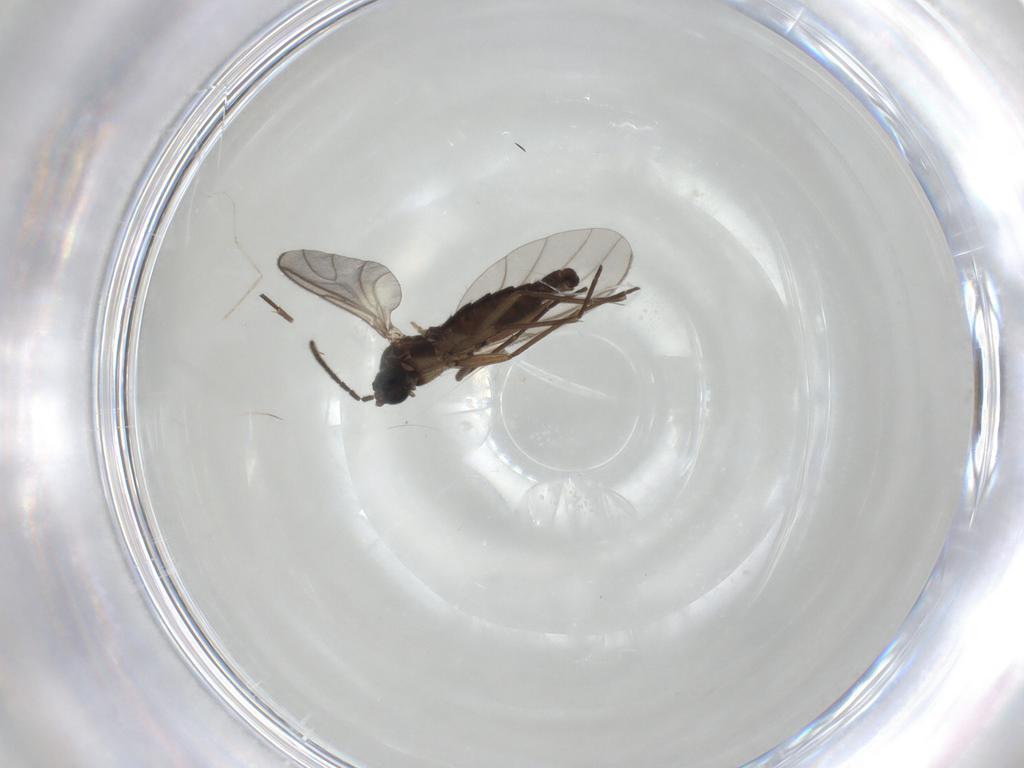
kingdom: Animalia
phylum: Arthropoda
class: Insecta
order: Diptera
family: Sciaridae
